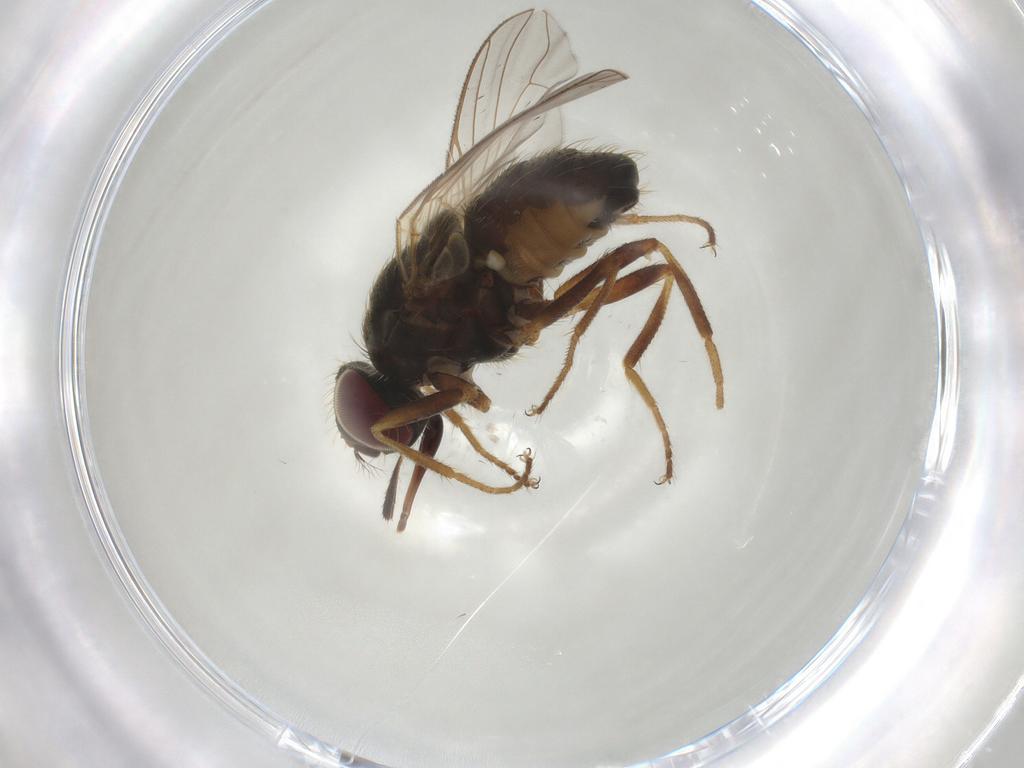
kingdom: Animalia
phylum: Arthropoda
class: Insecta
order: Diptera
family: Muscidae
